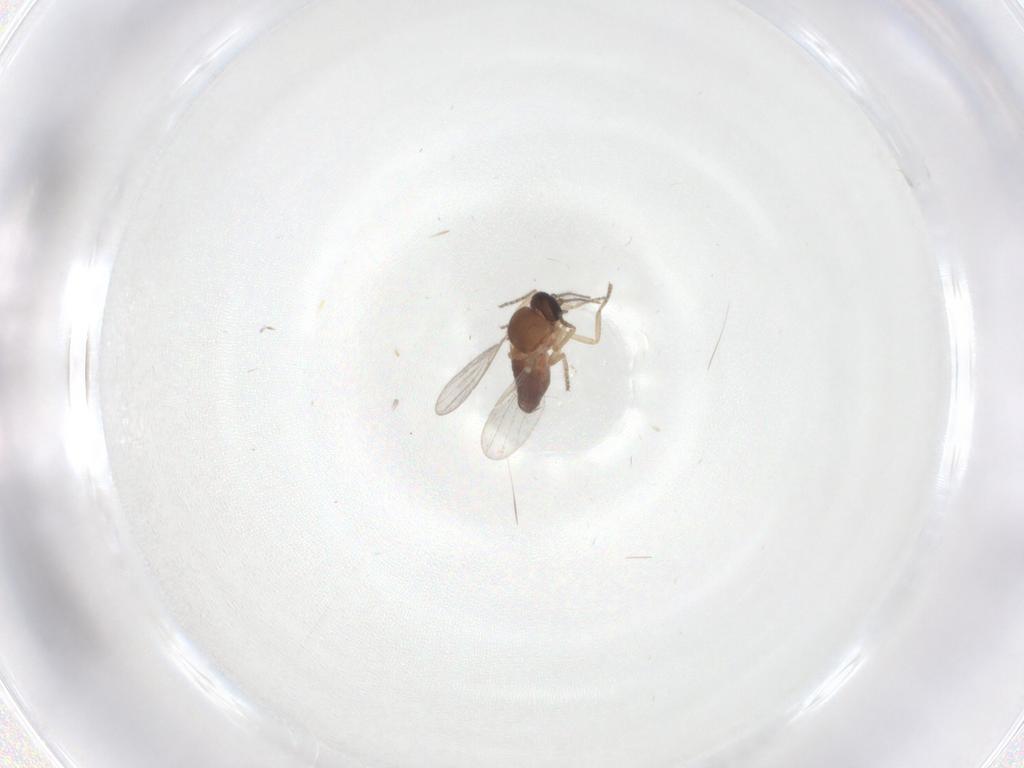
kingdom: Animalia
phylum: Arthropoda
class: Insecta
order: Diptera
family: Ceratopogonidae
